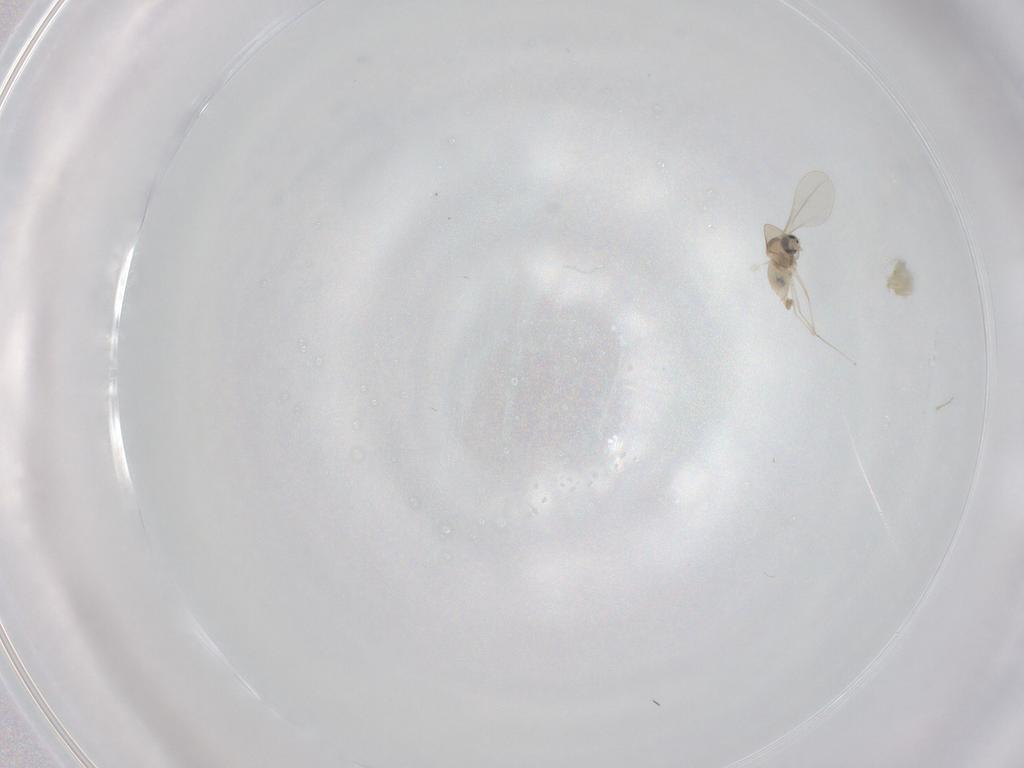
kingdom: Animalia
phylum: Arthropoda
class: Insecta
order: Diptera
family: Cecidomyiidae
